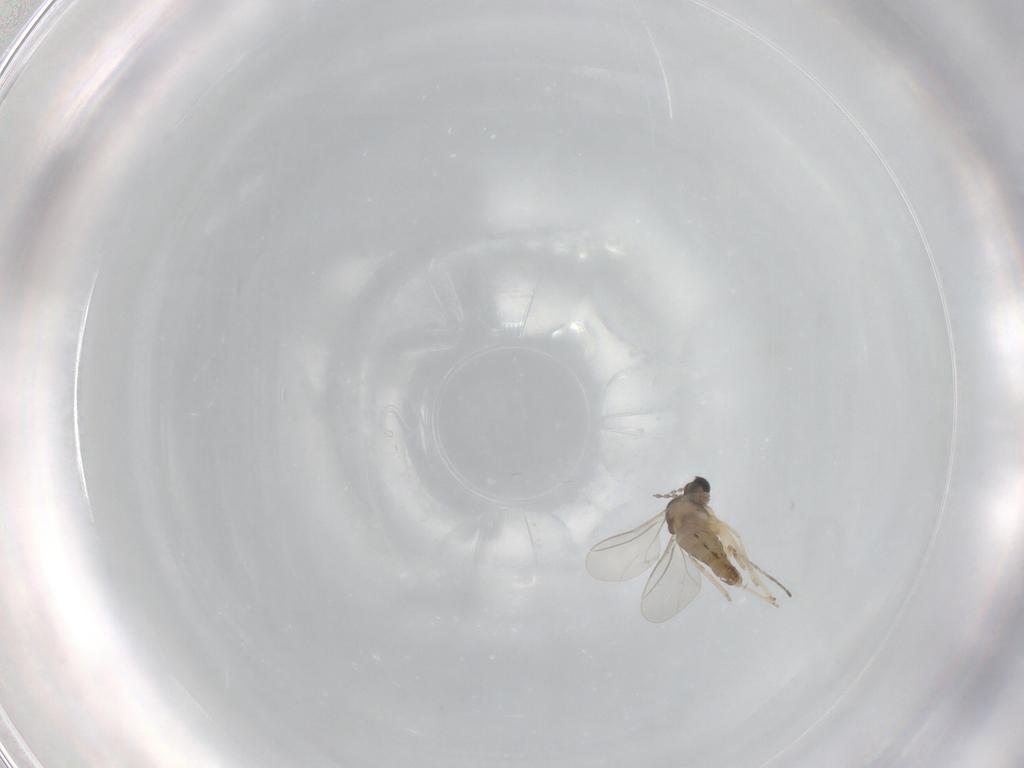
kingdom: Animalia
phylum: Arthropoda
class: Insecta
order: Diptera
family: Cecidomyiidae
